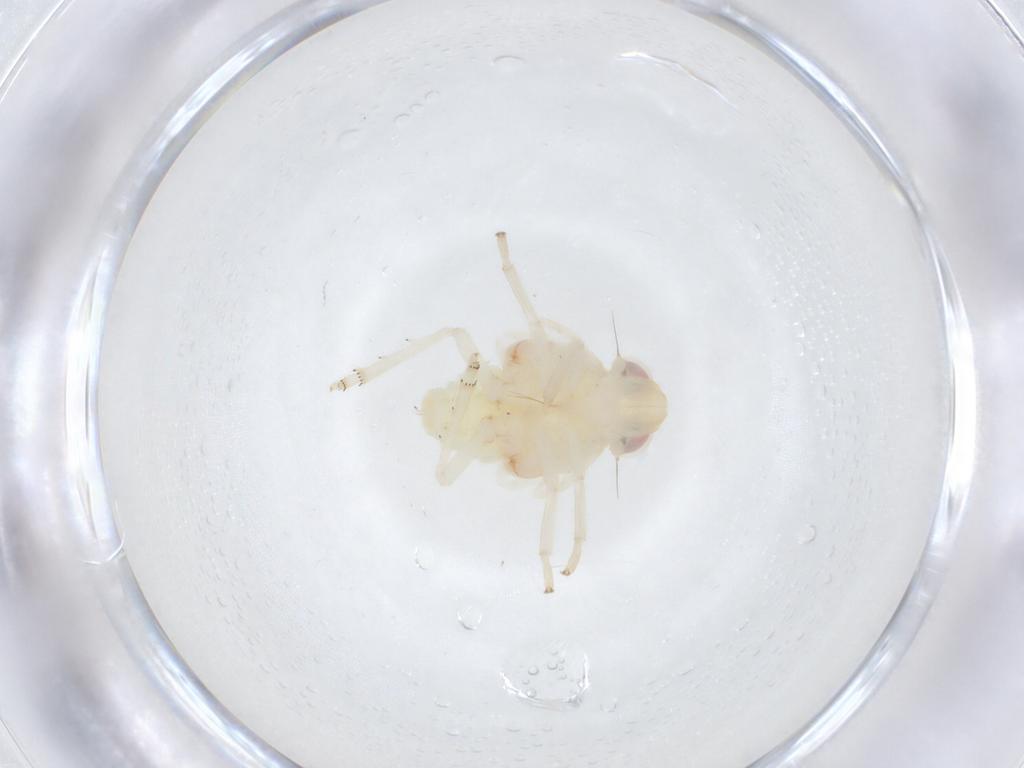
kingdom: Animalia
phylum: Arthropoda
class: Insecta
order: Hemiptera
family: Nogodinidae
